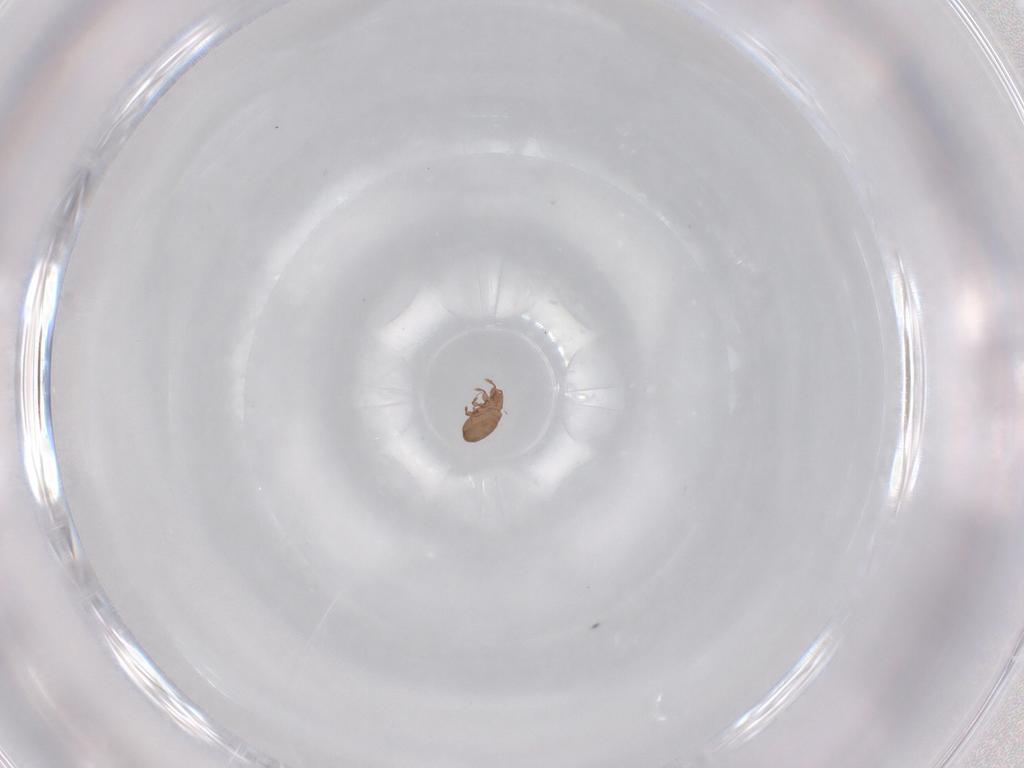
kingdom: Animalia
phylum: Arthropoda
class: Arachnida
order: Sarcoptiformes
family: Eremaeidae
